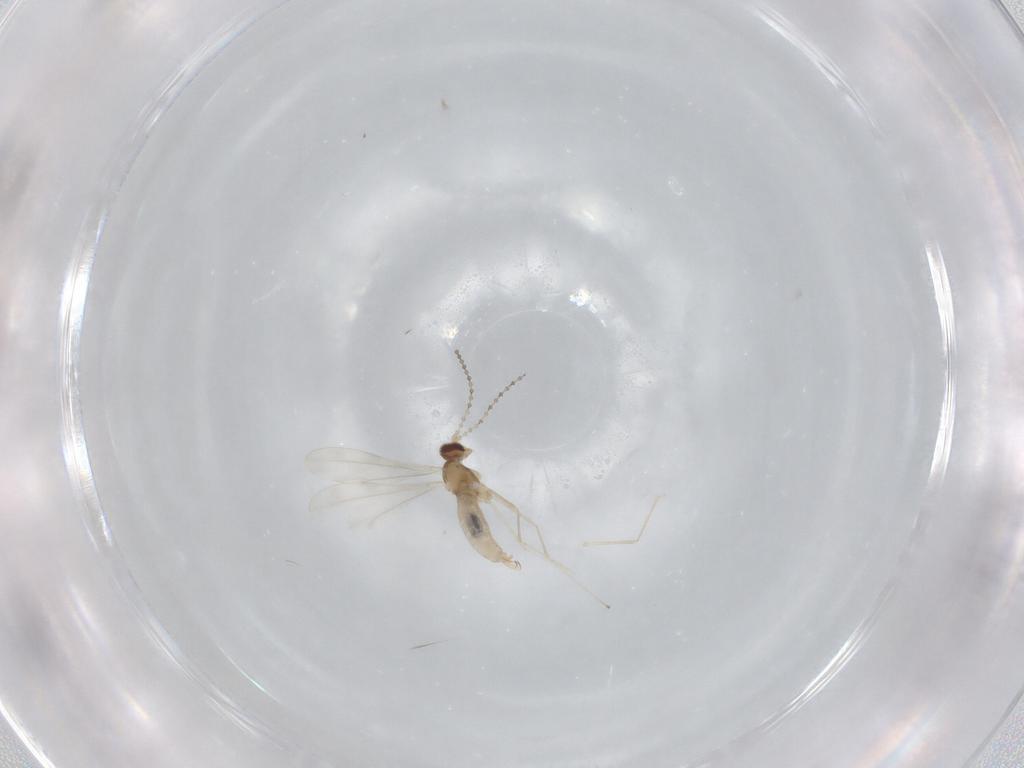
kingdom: Animalia
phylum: Arthropoda
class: Insecta
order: Diptera
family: Cecidomyiidae
